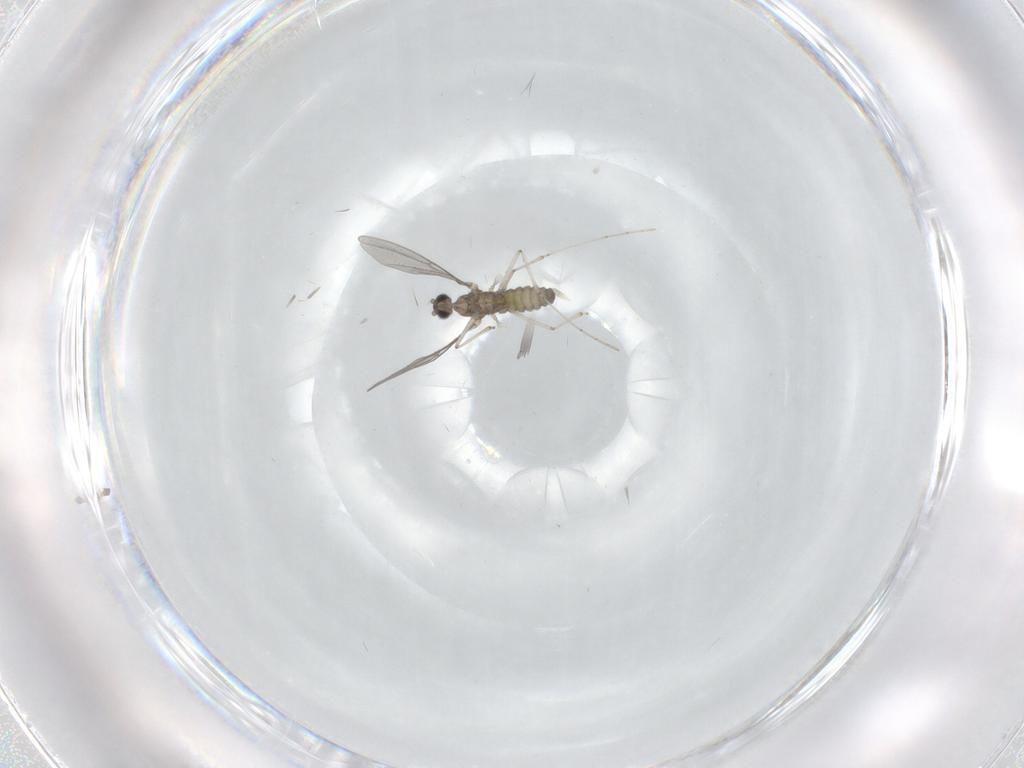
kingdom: Animalia
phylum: Arthropoda
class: Insecta
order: Diptera
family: Cecidomyiidae
